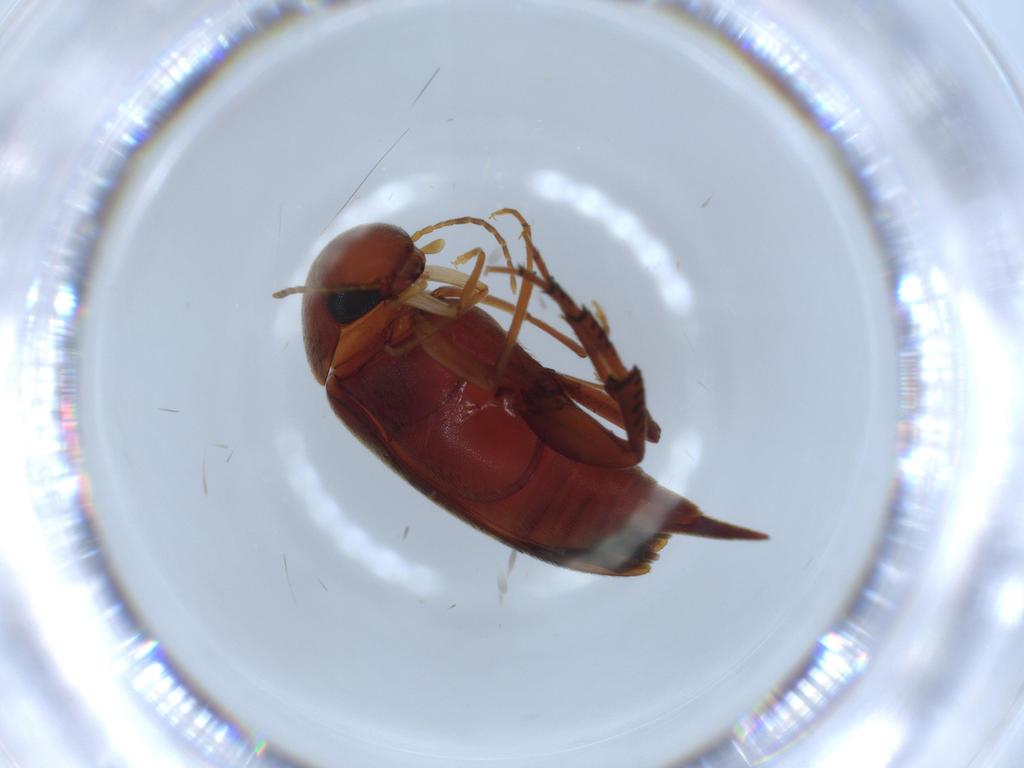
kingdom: Animalia
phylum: Arthropoda
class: Insecta
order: Coleoptera
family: Chrysomelidae
